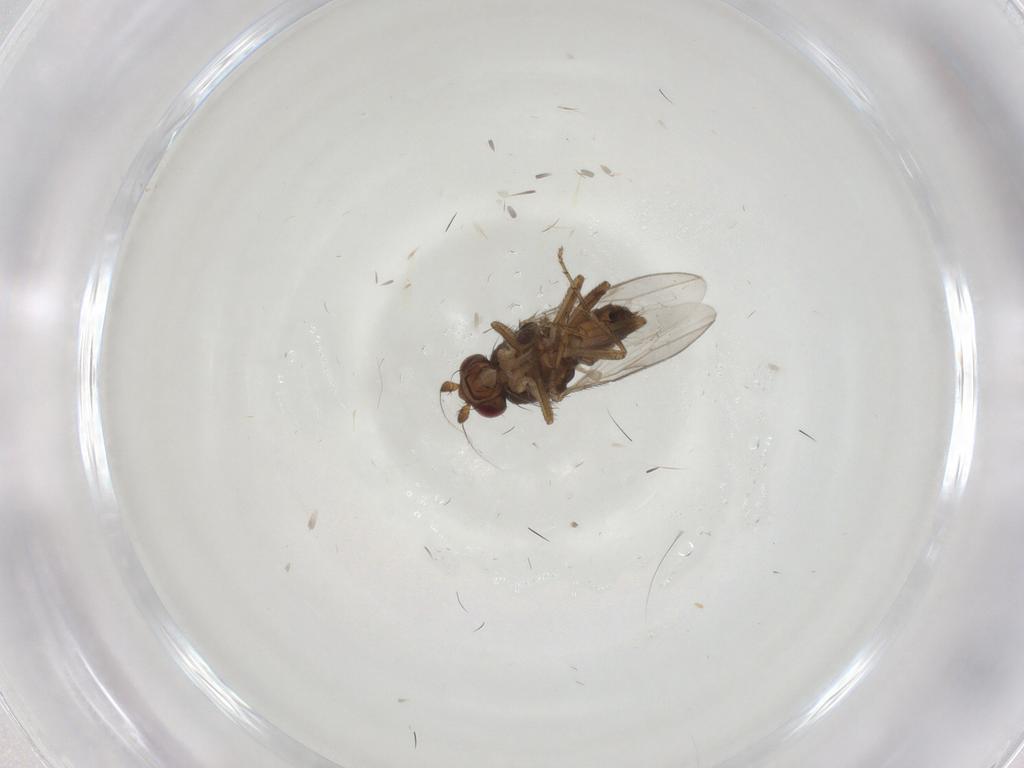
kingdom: Animalia
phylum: Arthropoda
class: Insecta
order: Diptera
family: Sphaeroceridae
